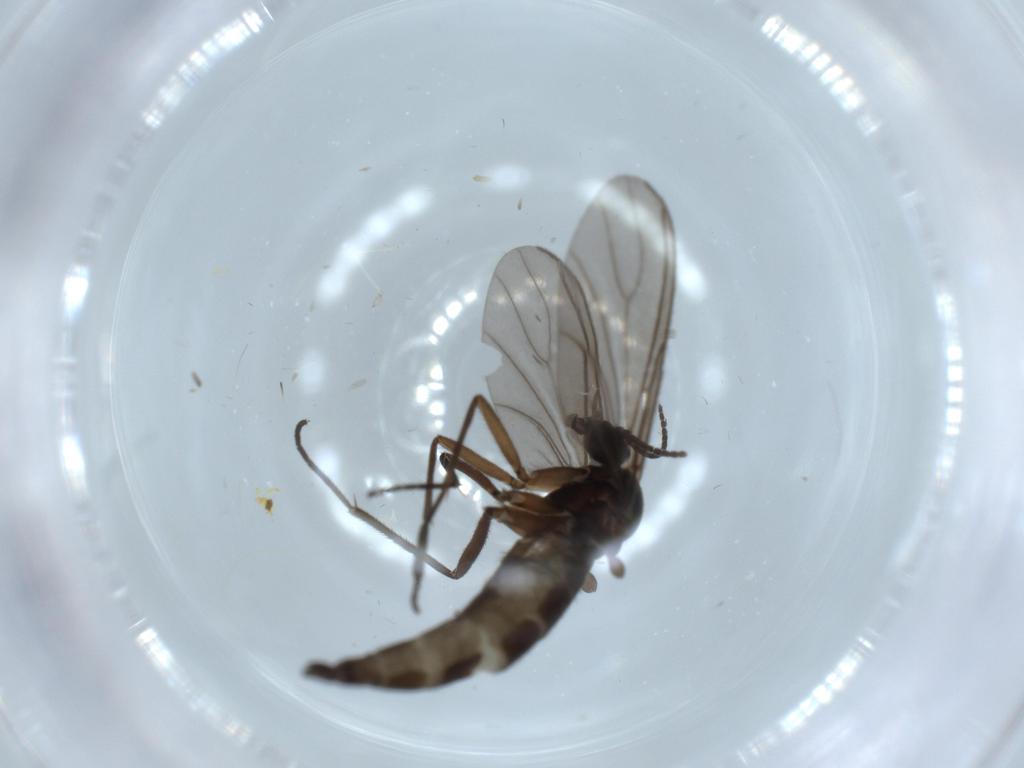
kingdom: Animalia
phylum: Arthropoda
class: Insecta
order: Diptera
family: Sciaridae
